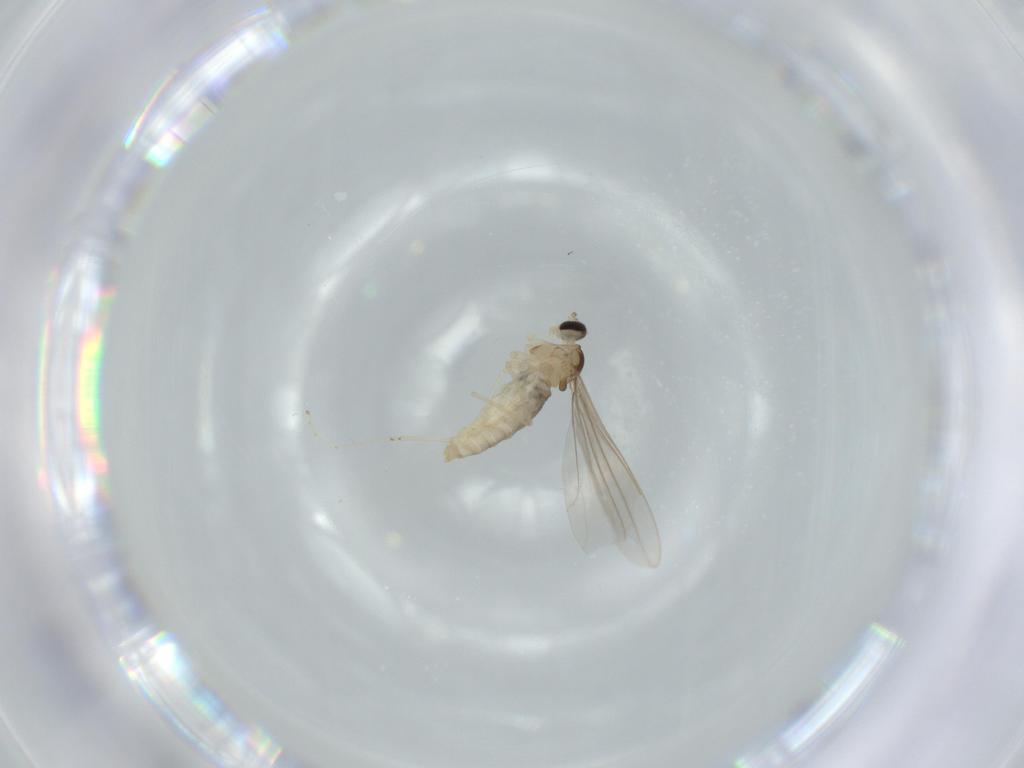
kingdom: Animalia
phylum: Arthropoda
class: Insecta
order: Diptera
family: Cecidomyiidae
